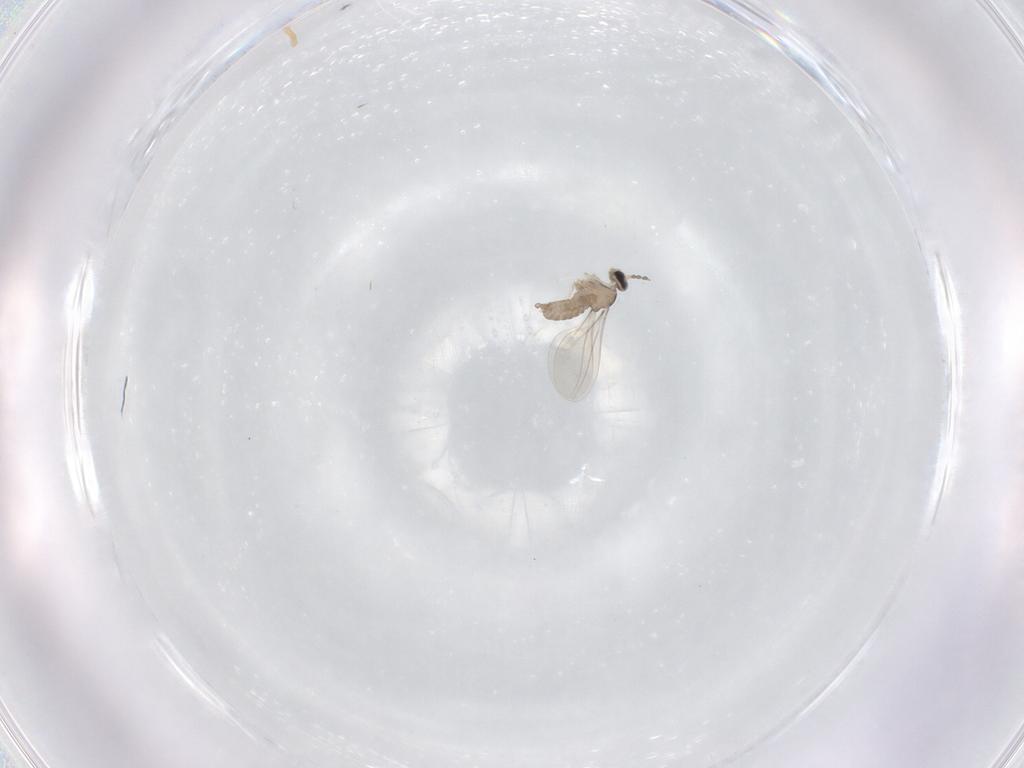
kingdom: Animalia
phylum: Arthropoda
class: Insecta
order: Diptera
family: Cecidomyiidae
